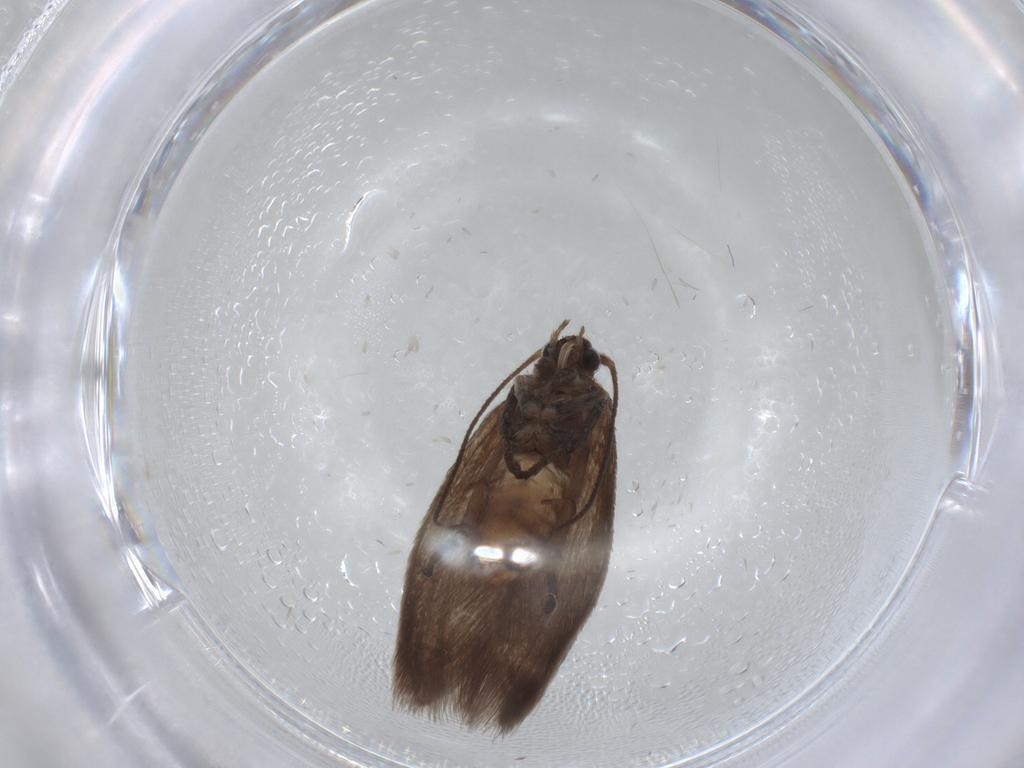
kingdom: Animalia
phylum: Arthropoda
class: Insecta
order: Lepidoptera
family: Limacodidae
